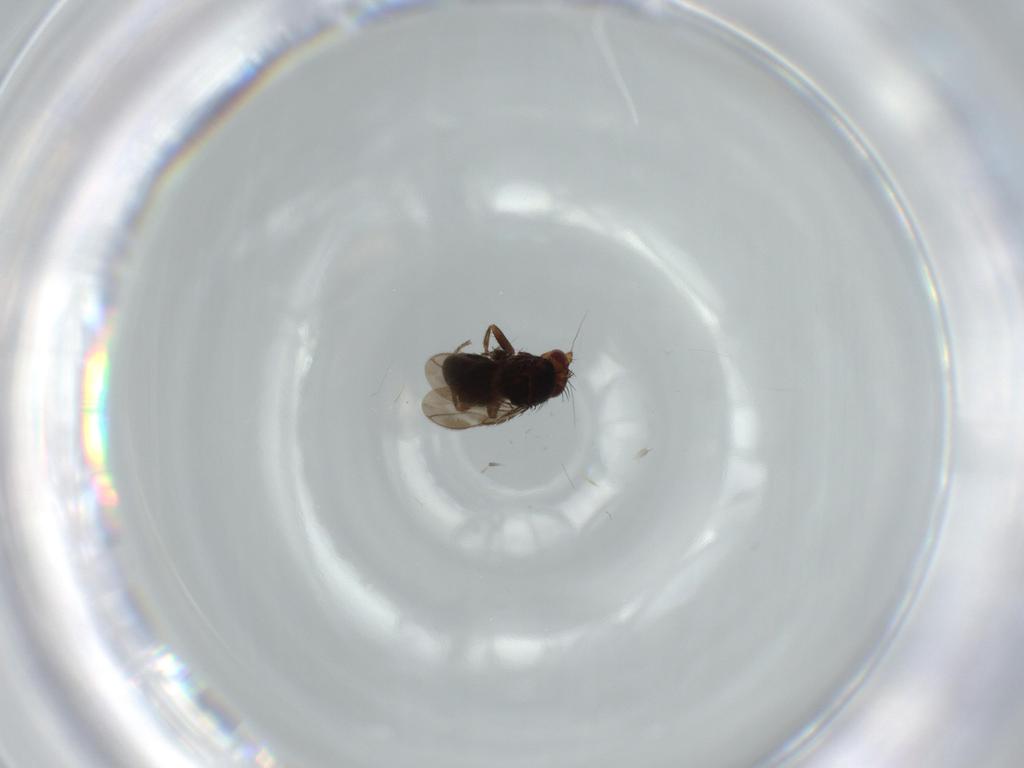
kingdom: Animalia
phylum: Arthropoda
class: Insecta
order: Diptera
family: Sphaeroceridae
